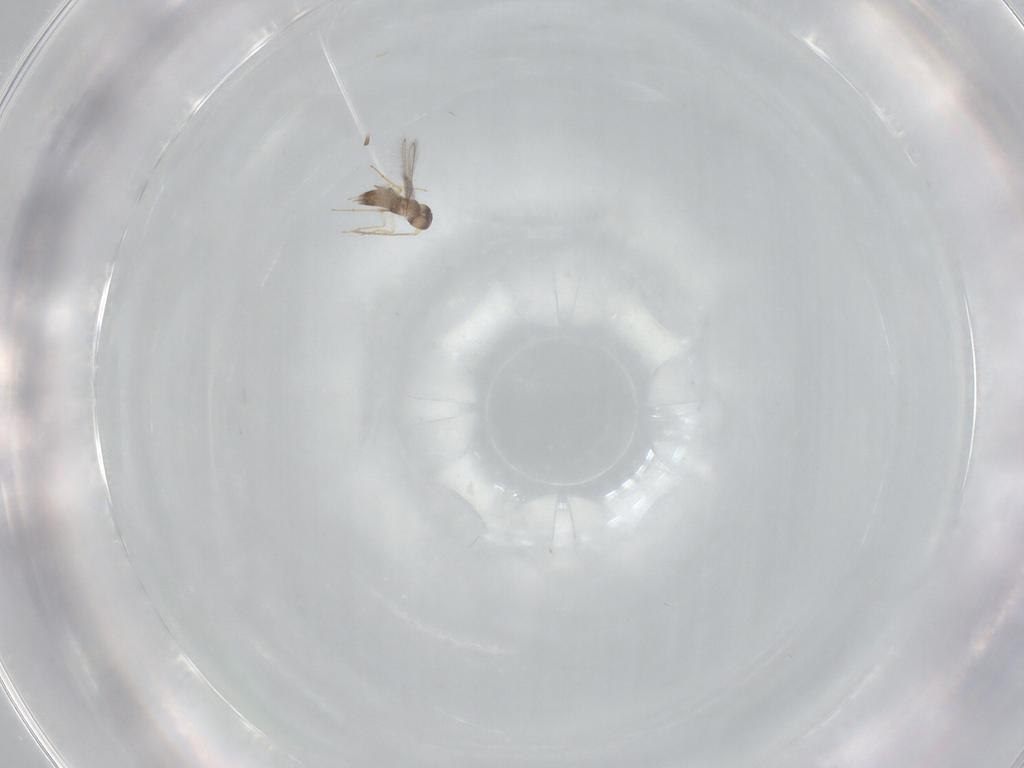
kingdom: Animalia
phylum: Arthropoda
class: Insecta
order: Hymenoptera
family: Mymaridae
